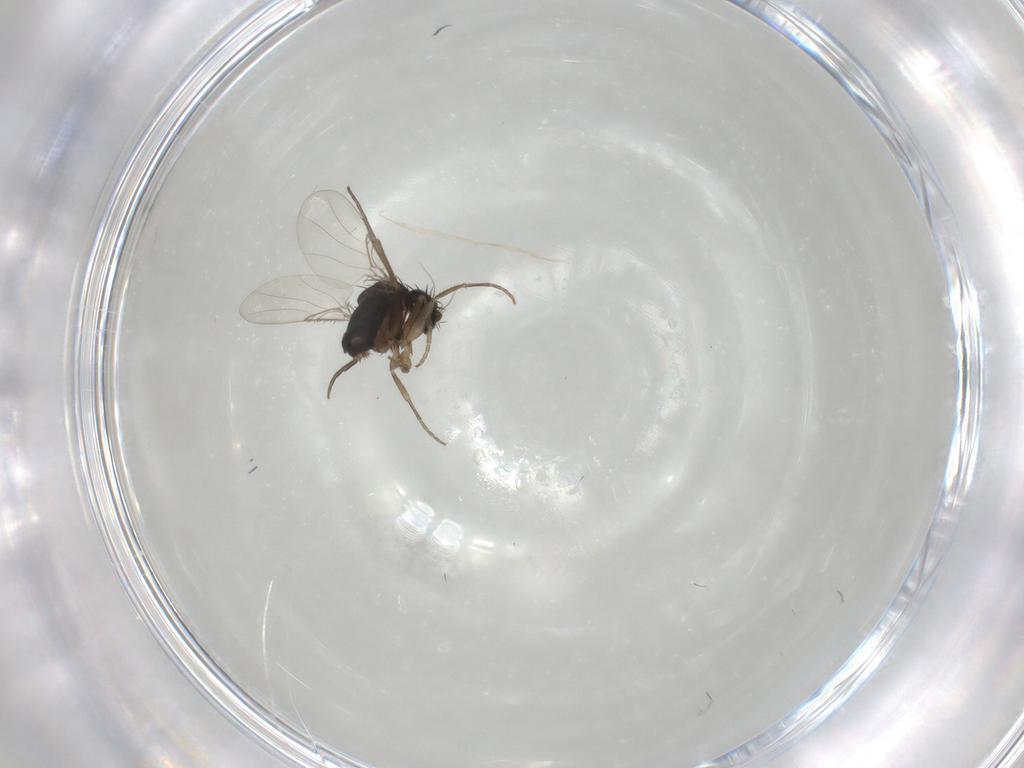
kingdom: Animalia
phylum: Arthropoda
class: Insecta
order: Diptera
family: Phoridae
